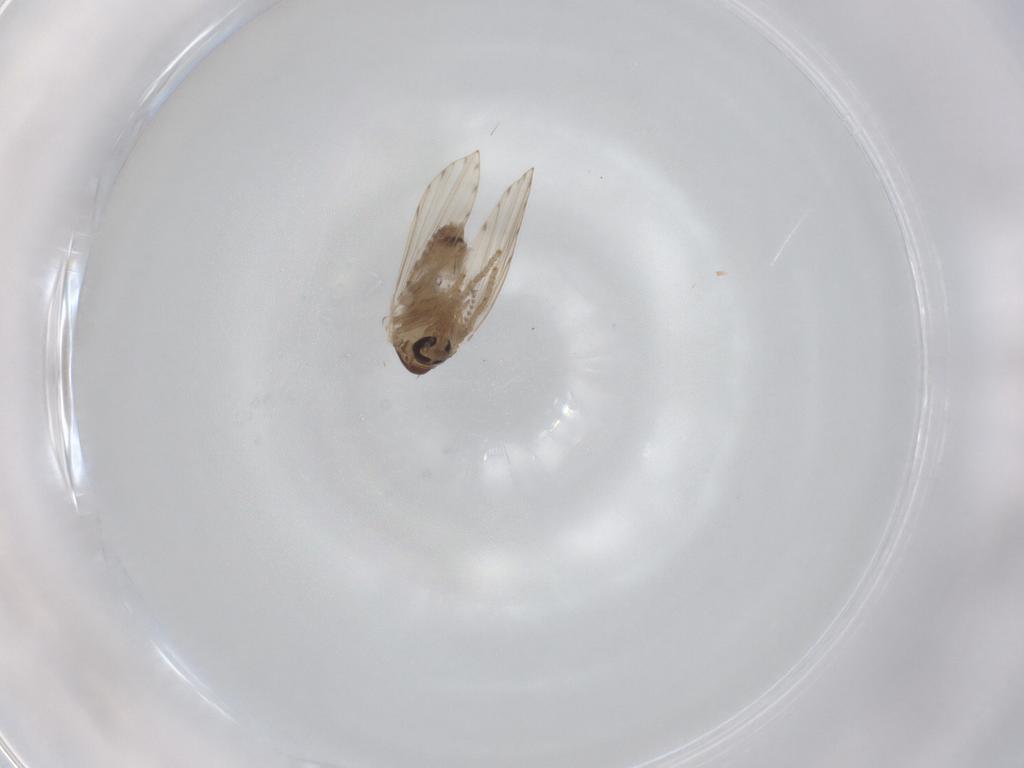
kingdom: Animalia
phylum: Arthropoda
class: Insecta
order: Diptera
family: Psychodidae
